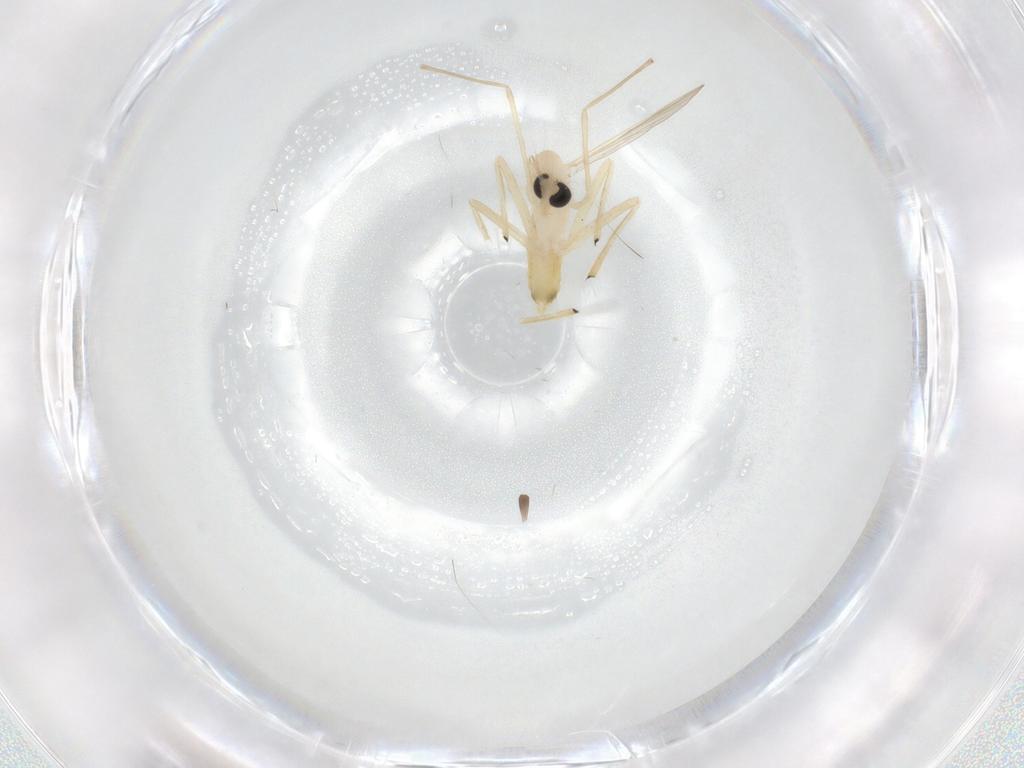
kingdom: Animalia
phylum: Arthropoda
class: Insecta
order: Diptera
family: Chironomidae
